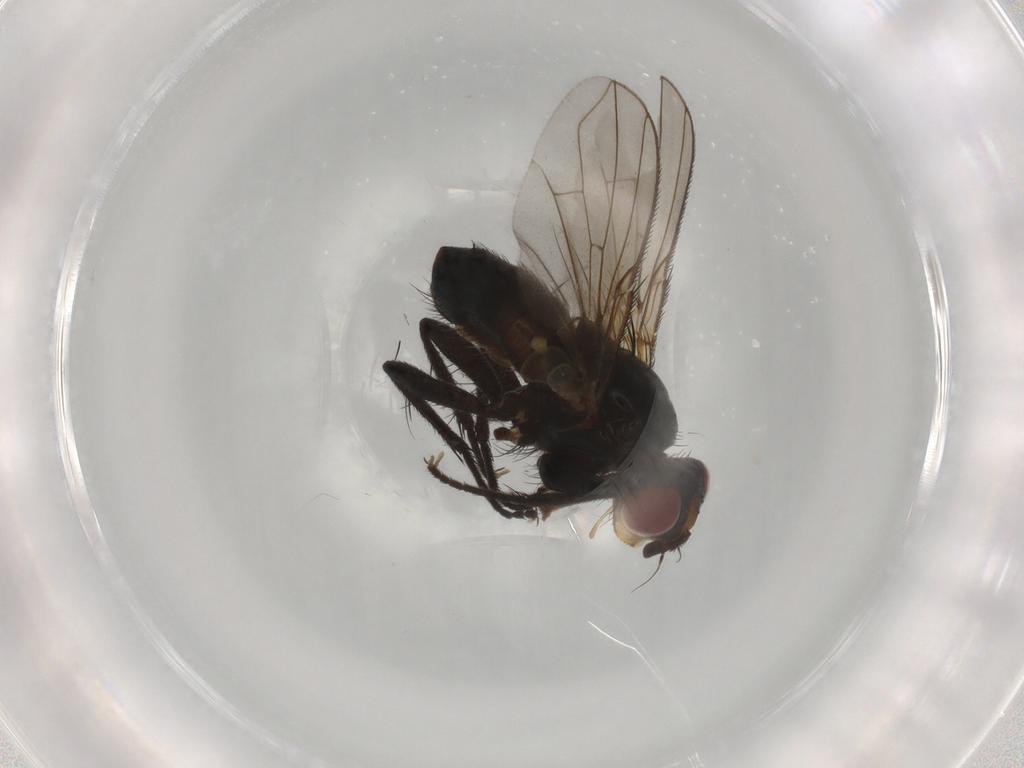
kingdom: Animalia
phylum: Arthropoda
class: Insecta
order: Diptera
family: Calliphoridae
